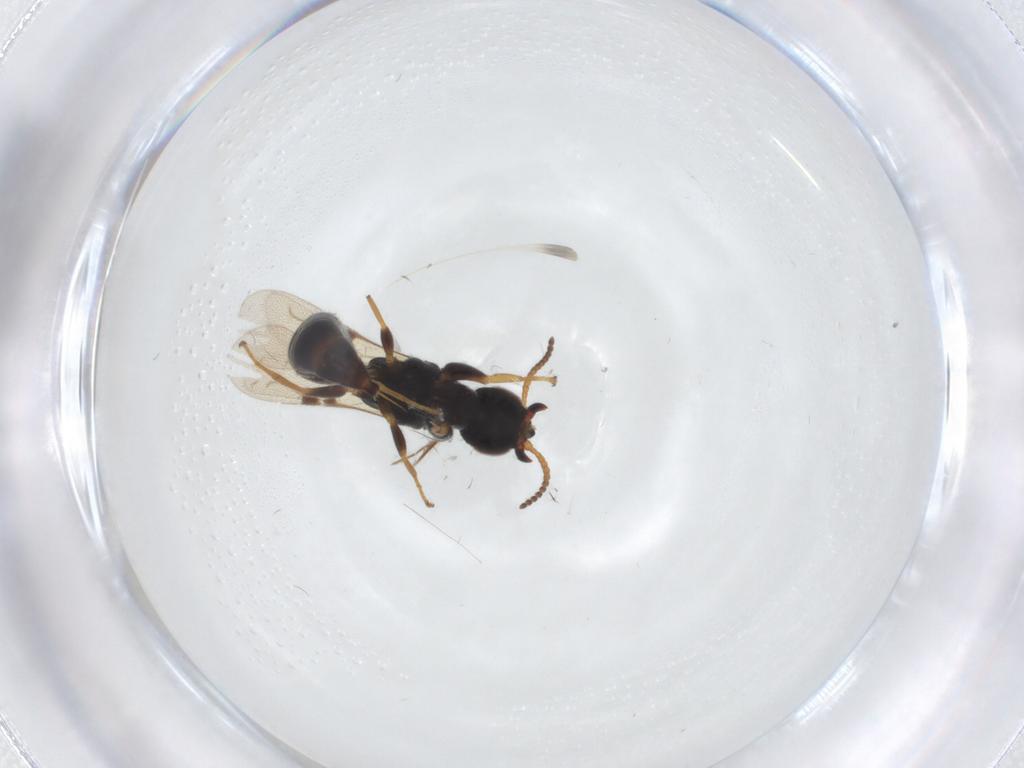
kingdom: Animalia
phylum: Arthropoda
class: Insecta
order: Hymenoptera
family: Bethylidae
